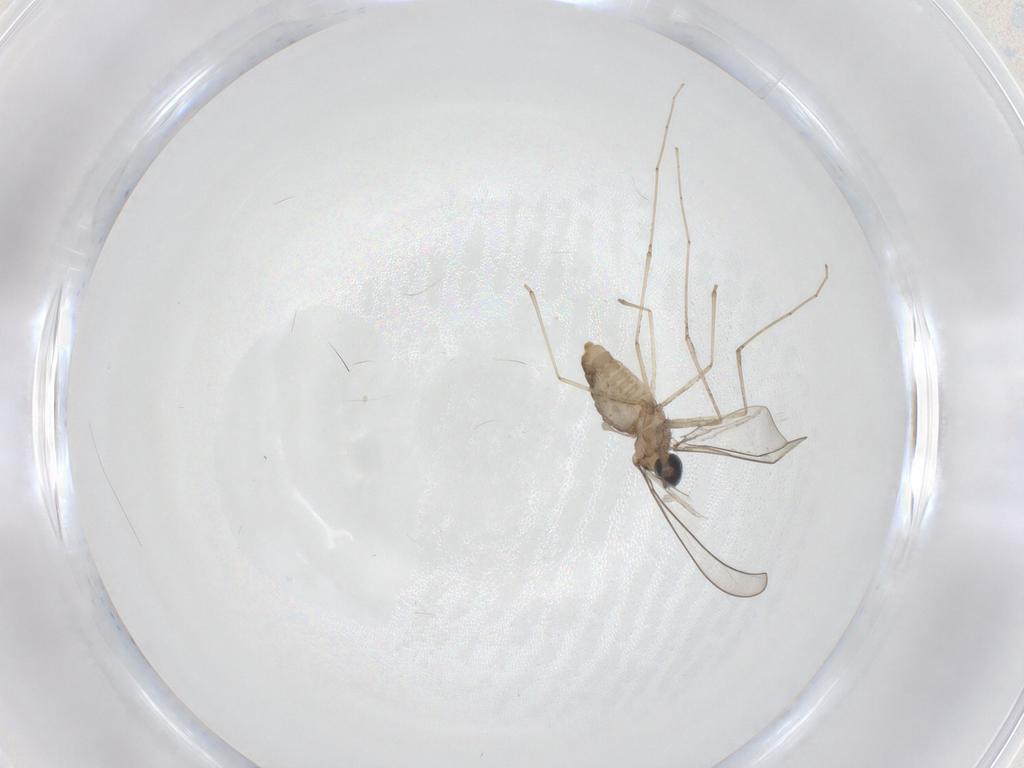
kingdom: Animalia
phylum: Arthropoda
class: Insecta
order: Diptera
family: Cecidomyiidae
